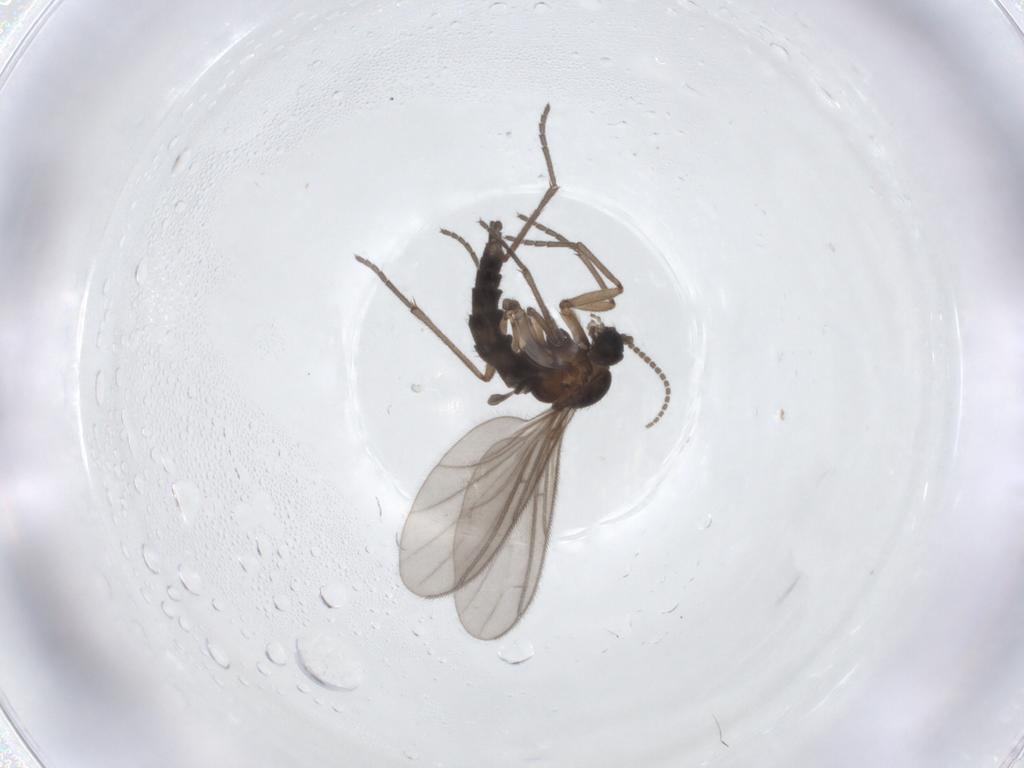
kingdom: Animalia
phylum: Arthropoda
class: Insecta
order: Diptera
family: Sciaridae
